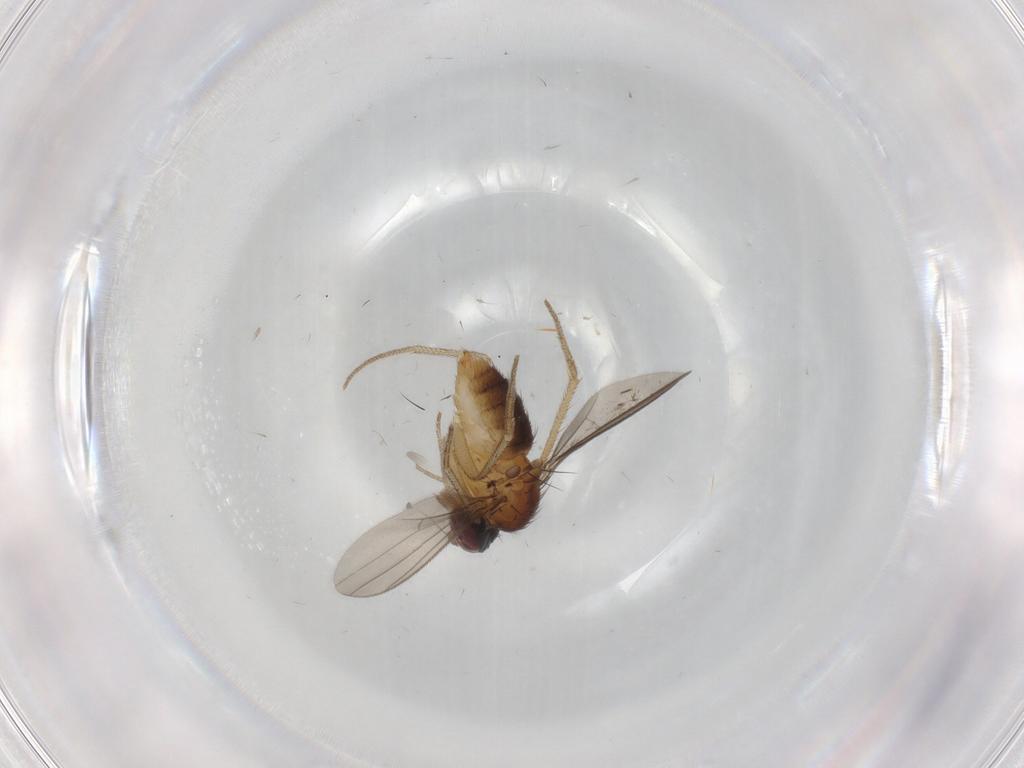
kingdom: Animalia
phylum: Arthropoda
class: Insecta
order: Diptera
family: Dolichopodidae
